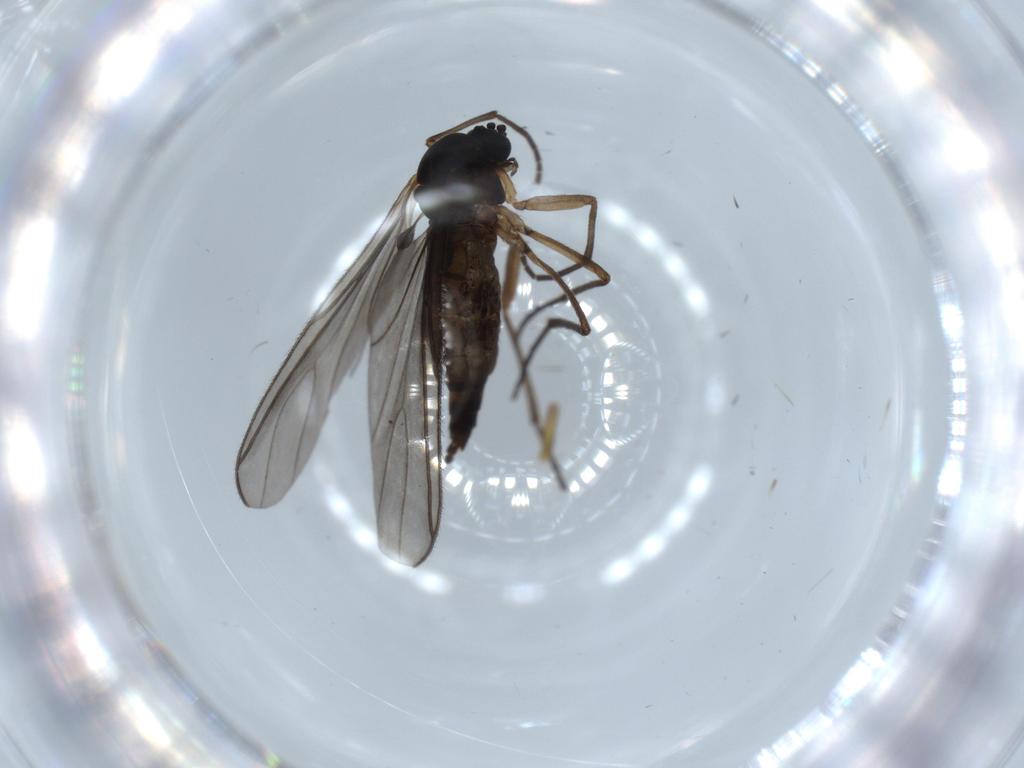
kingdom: Animalia
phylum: Arthropoda
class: Insecta
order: Diptera
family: Sciaridae
